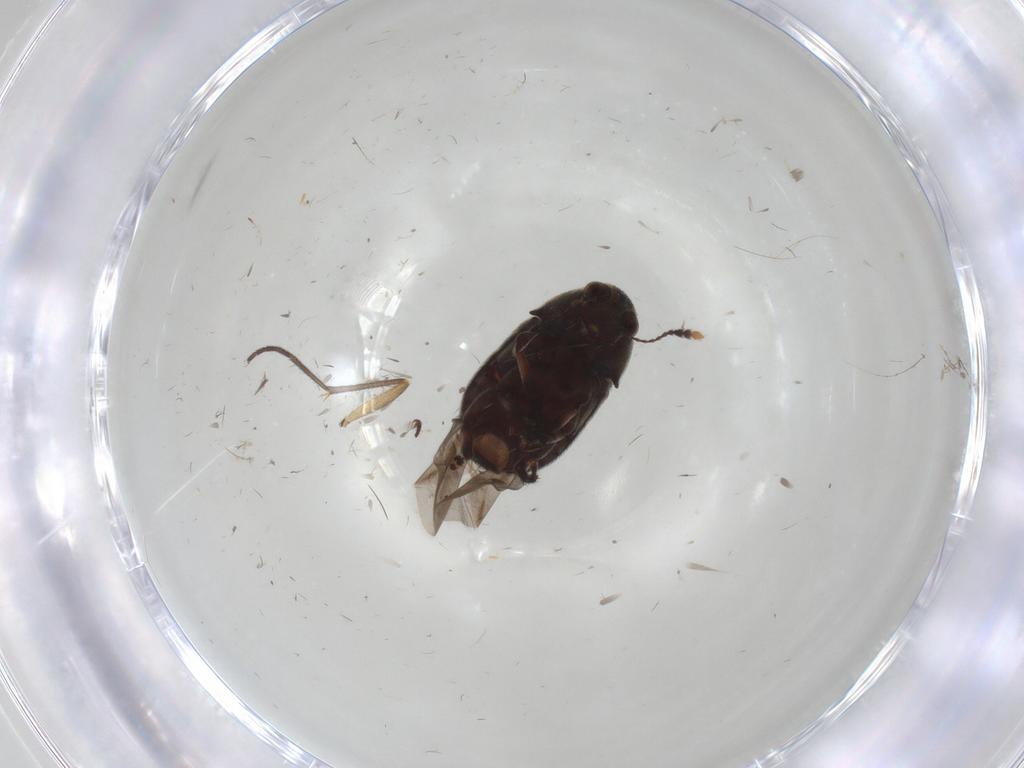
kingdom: Animalia
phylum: Arthropoda
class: Insecta
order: Coleoptera
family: Anthribidae
